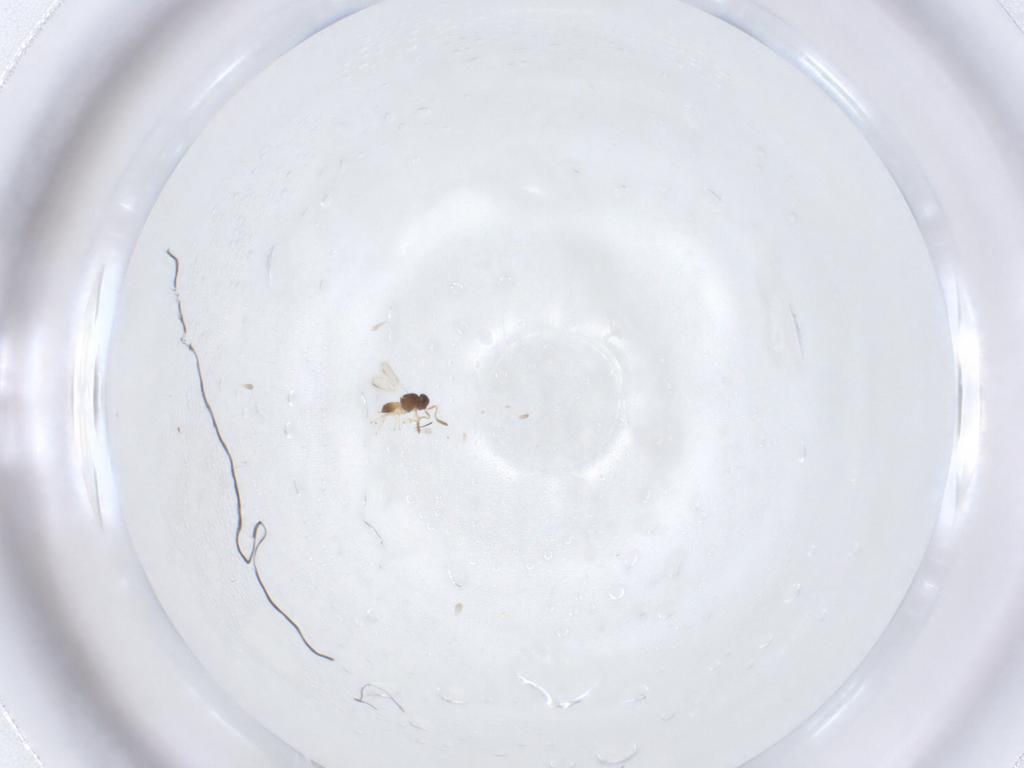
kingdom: Animalia
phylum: Arthropoda
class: Insecta
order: Hymenoptera
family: Scelionidae
